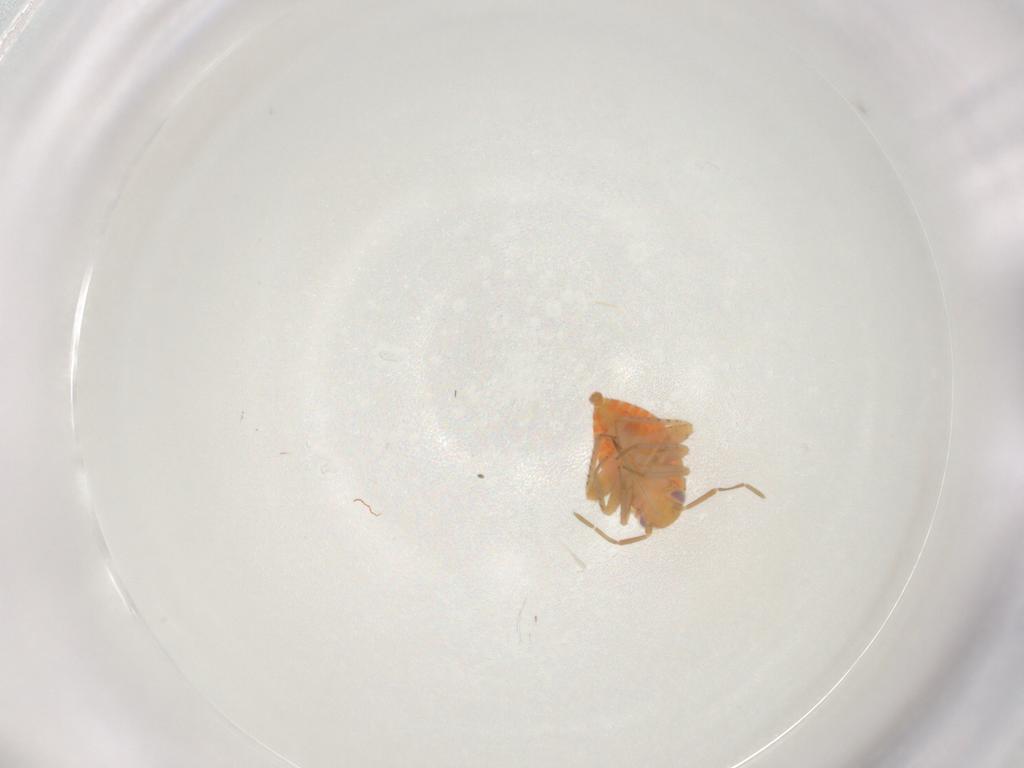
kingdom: Animalia
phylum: Arthropoda
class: Insecta
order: Hemiptera
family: Miridae
